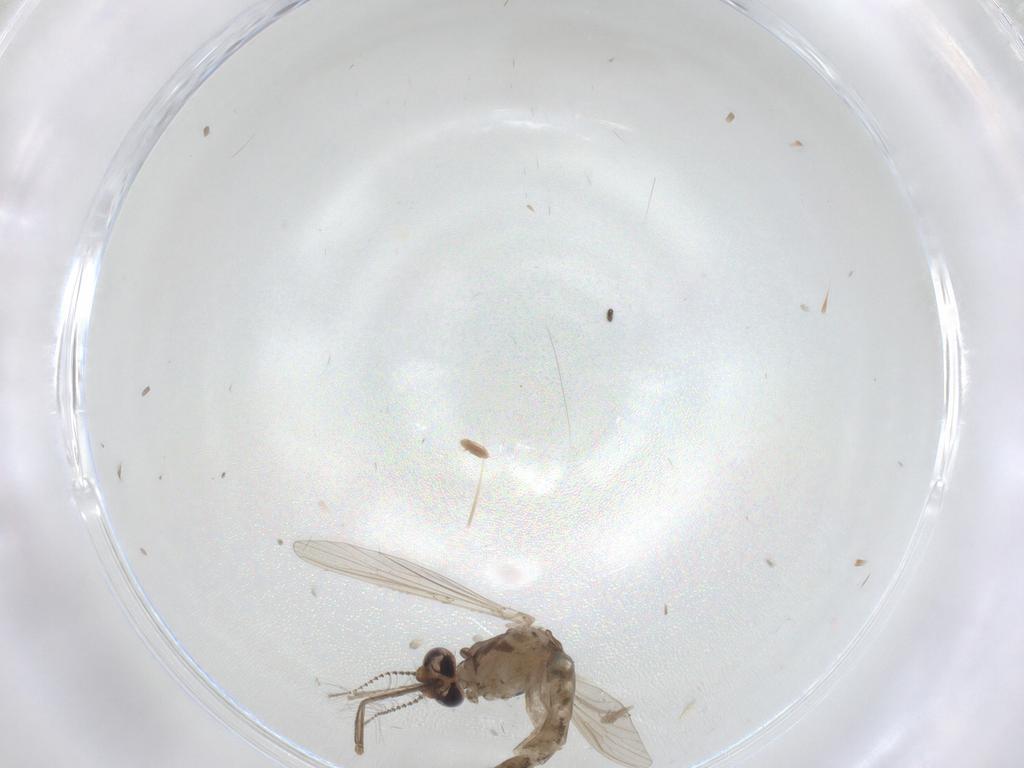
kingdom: Animalia
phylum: Arthropoda
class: Insecta
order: Diptera
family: Culicidae
